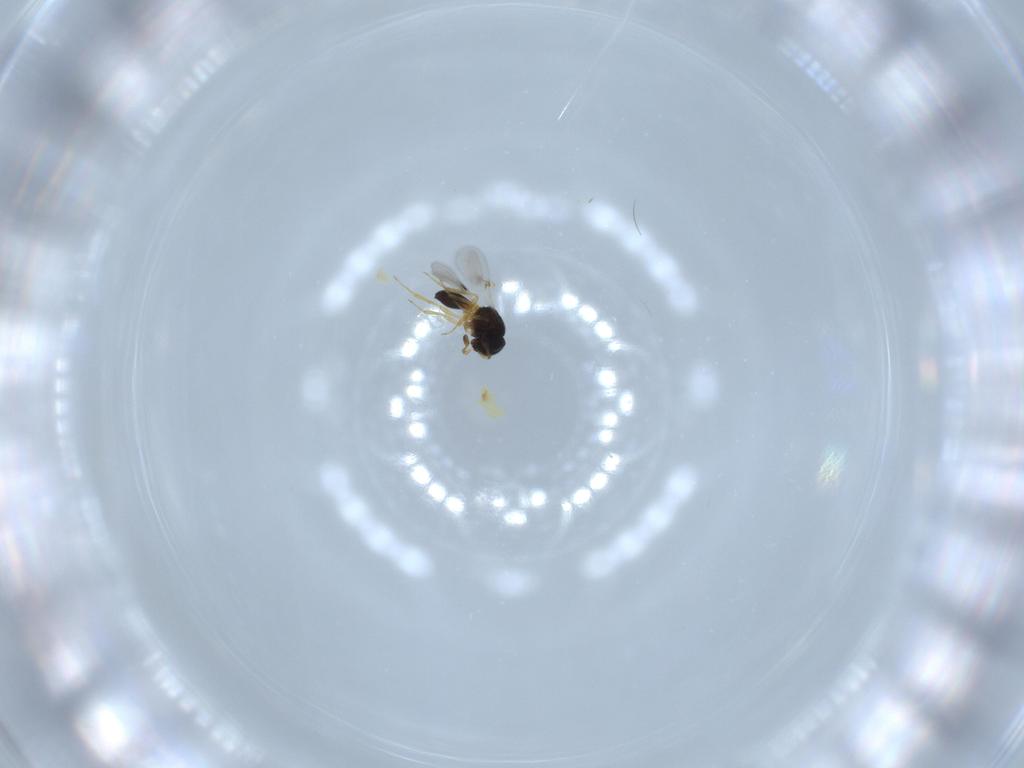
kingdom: Animalia
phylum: Arthropoda
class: Insecta
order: Hymenoptera
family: Scelionidae
